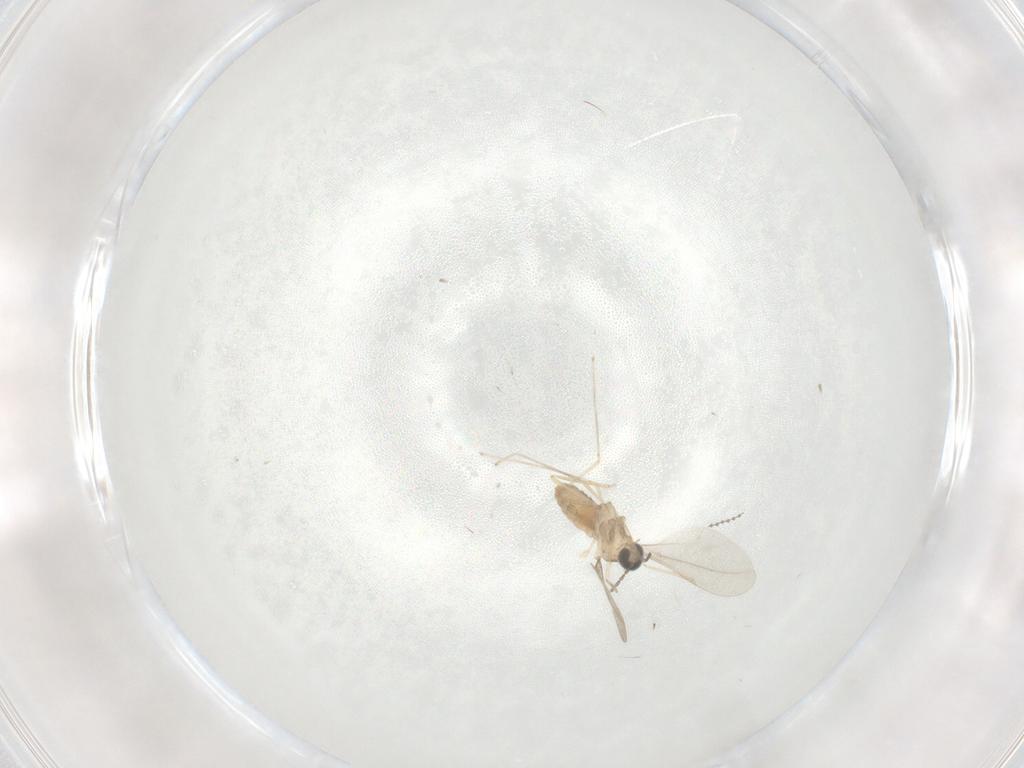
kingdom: Animalia
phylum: Arthropoda
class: Insecta
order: Diptera
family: Cecidomyiidae
